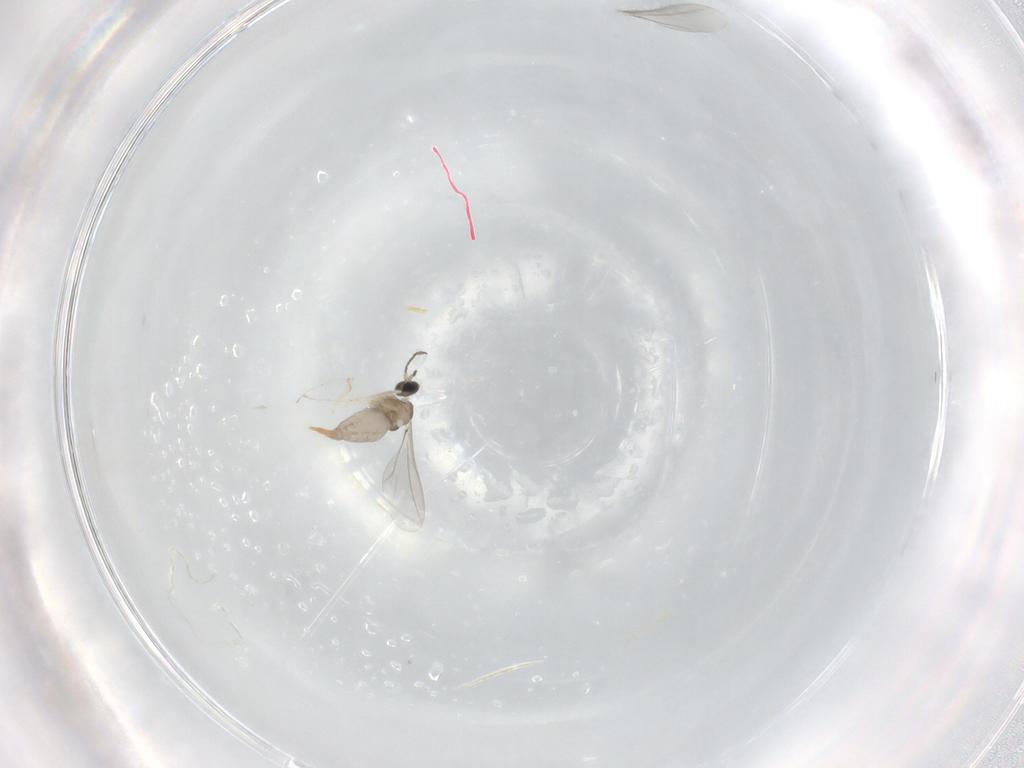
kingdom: Animalia
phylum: Arthropoda
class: Insecta
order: Diptera
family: Cecidomyiidae
